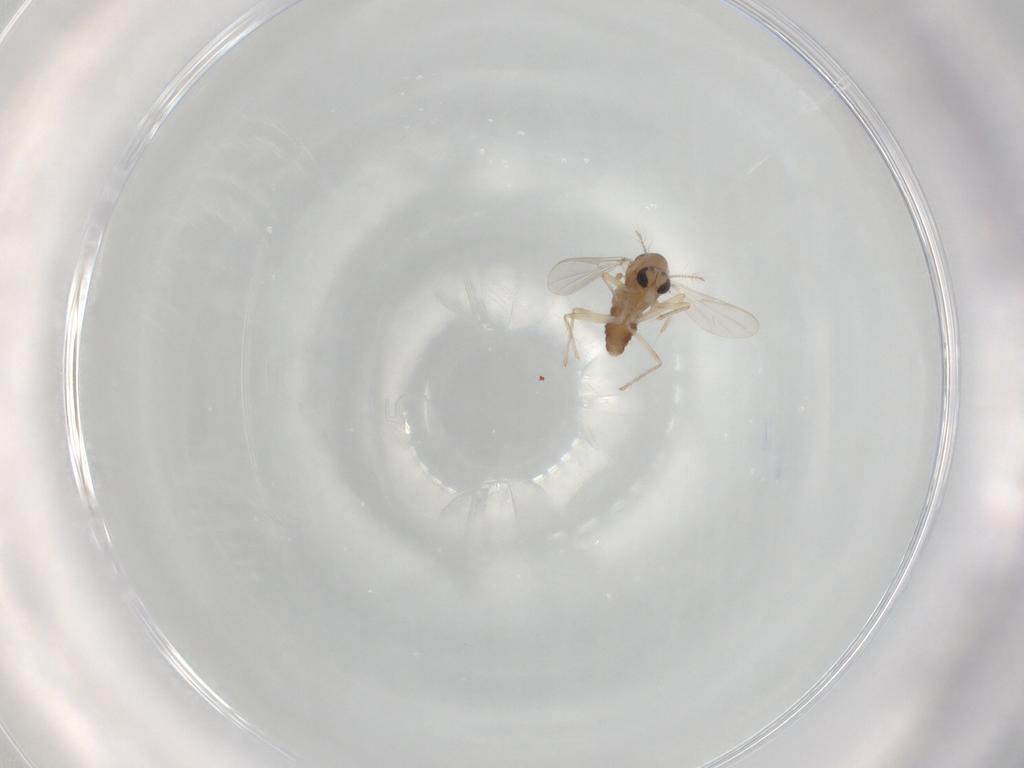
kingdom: Animalia
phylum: Arthropoda
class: Insecta
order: Diptera
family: Chironomidae
